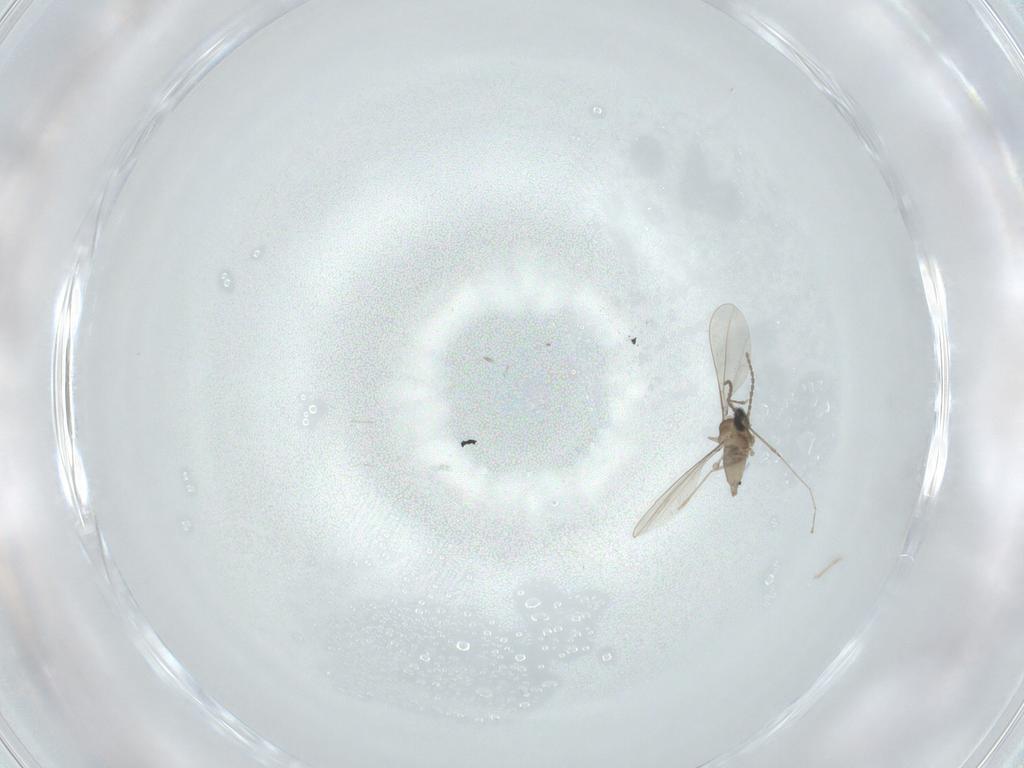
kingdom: Animalia
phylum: Arthropoda
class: Insecta
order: Diptera
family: Cecidomyiidae
